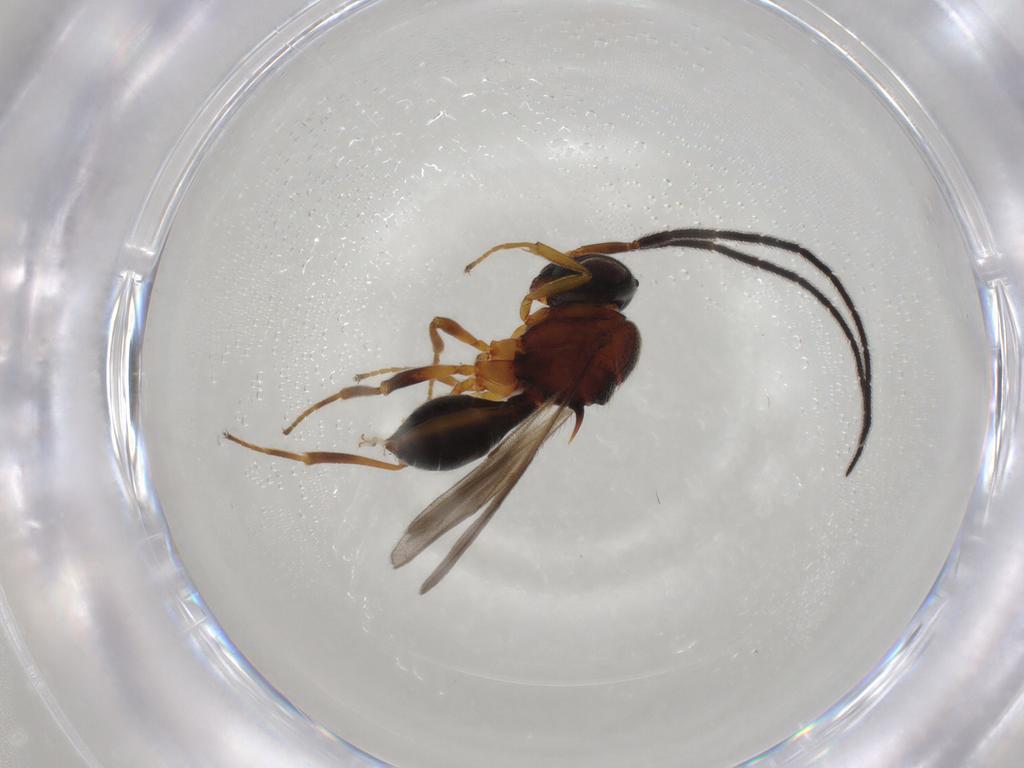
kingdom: Animalia
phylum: Arthropoda
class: Insecta
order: Hymenoptera
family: Scelionidae
